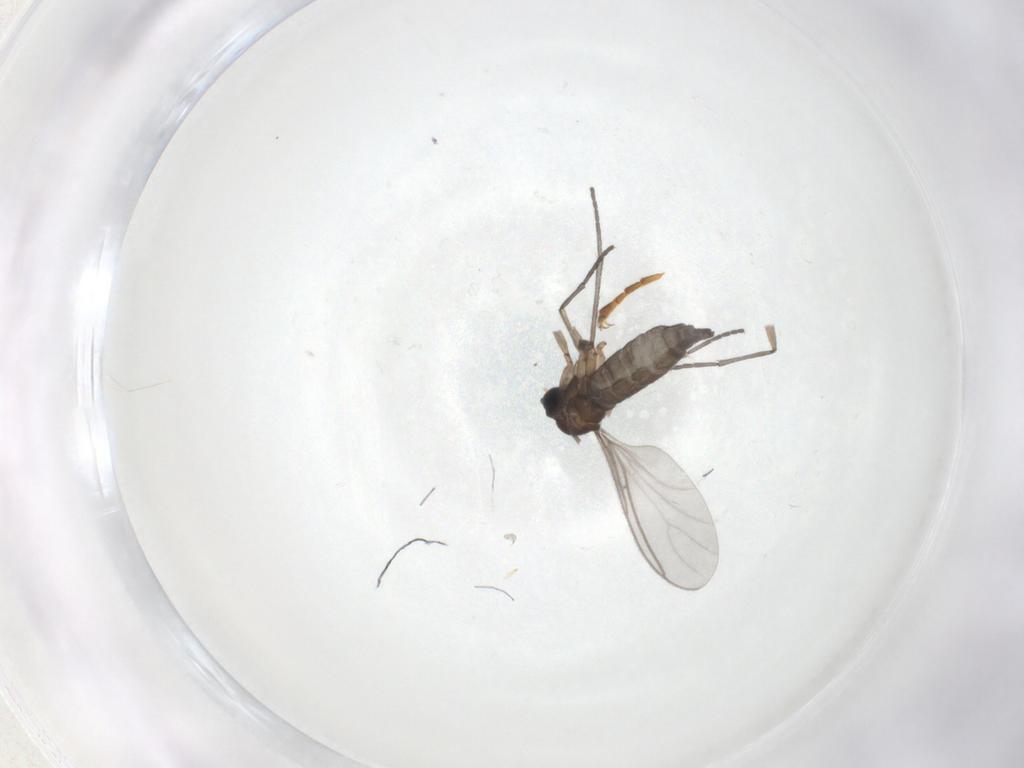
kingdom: Animalia
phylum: Arthropoda
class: Insecta
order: Diptera
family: Sciaridae
